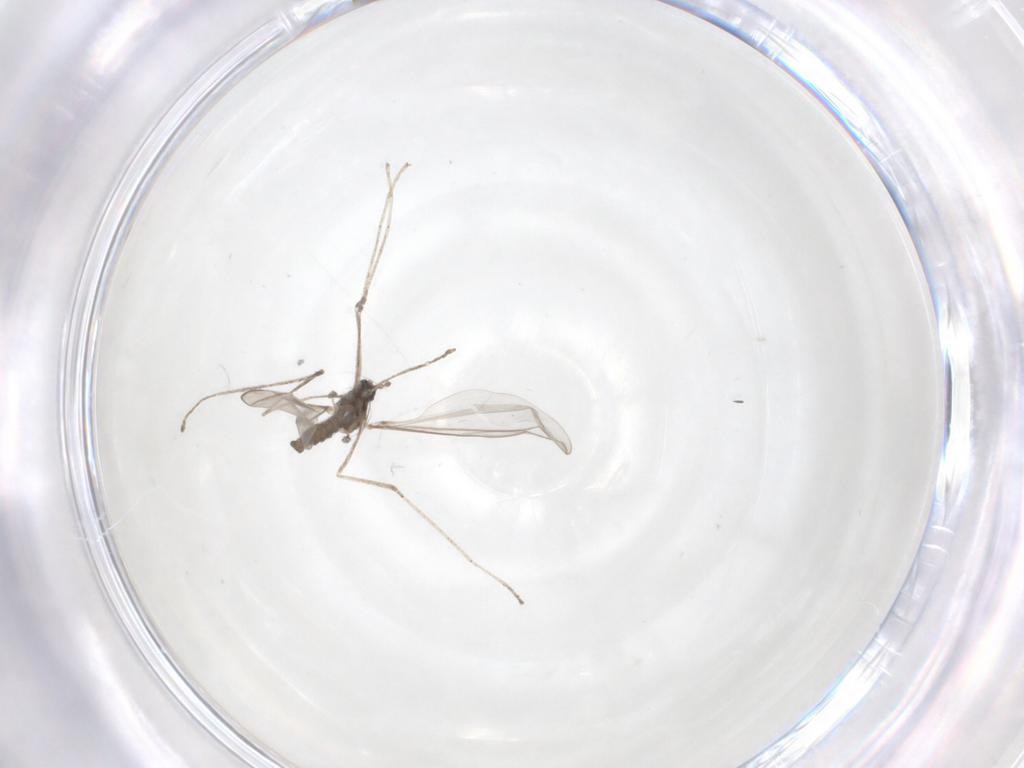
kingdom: Animalia
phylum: Arthropoda
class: Insecta
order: Diptera
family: Cecidomyiidae
